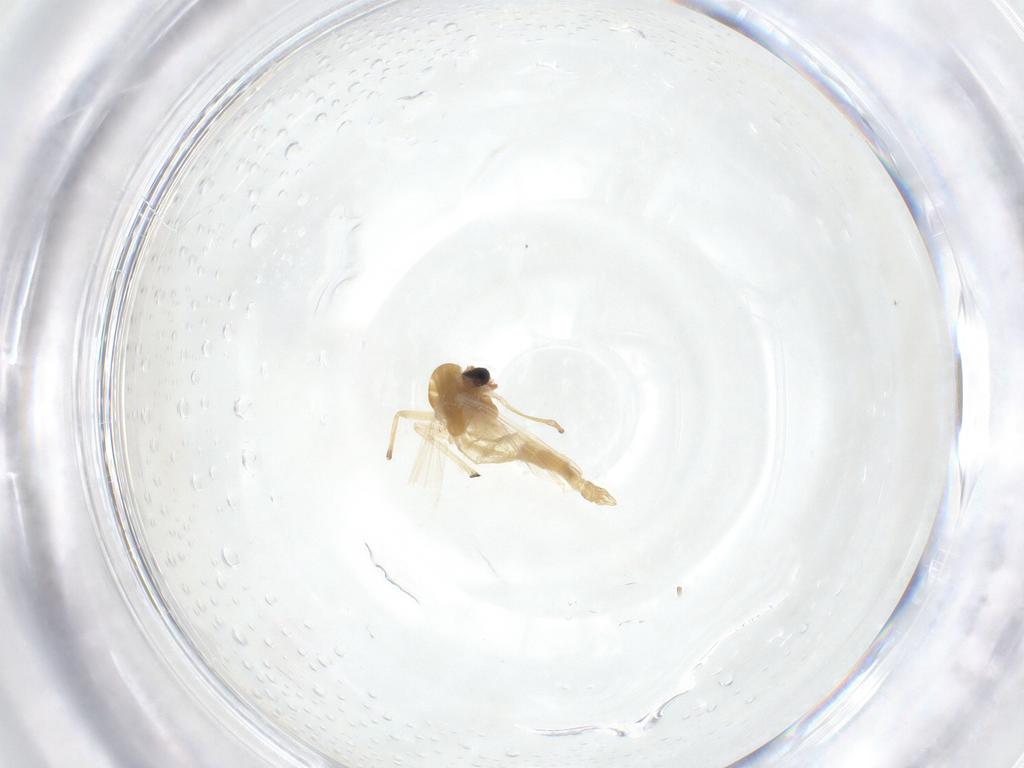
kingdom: Animalia
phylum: Arthropoda
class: Insecta
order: Diptera
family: Chironomidae
